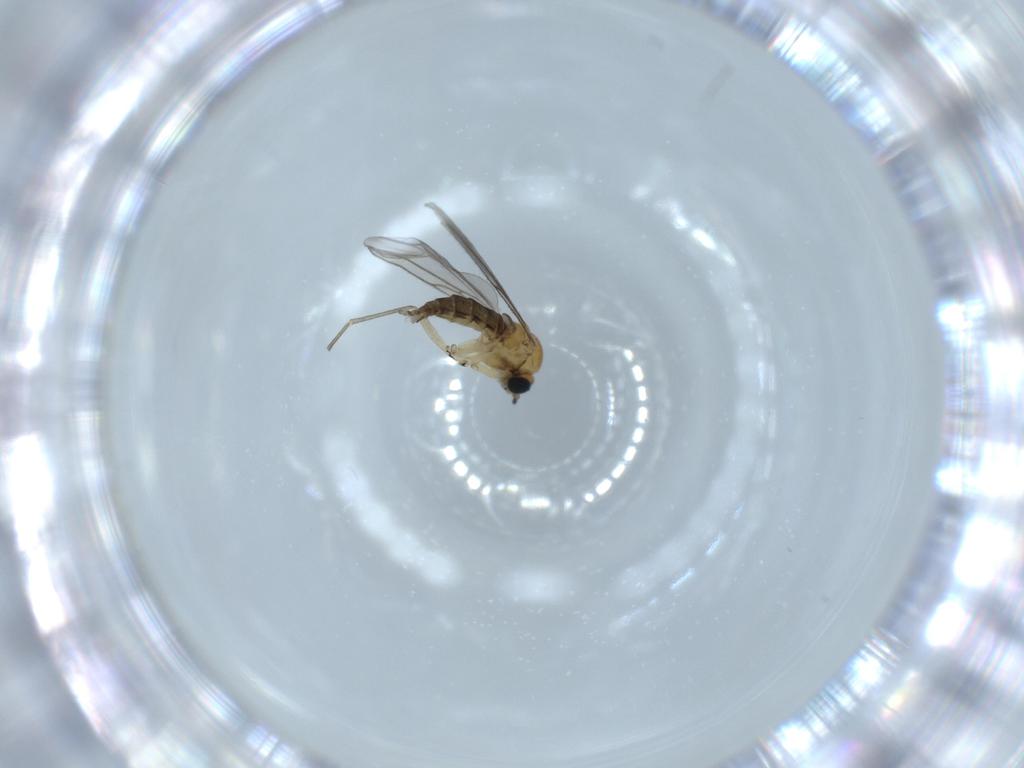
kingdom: Animalia
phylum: Arthropoda
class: Insecta
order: Diptera
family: Sciaridae
